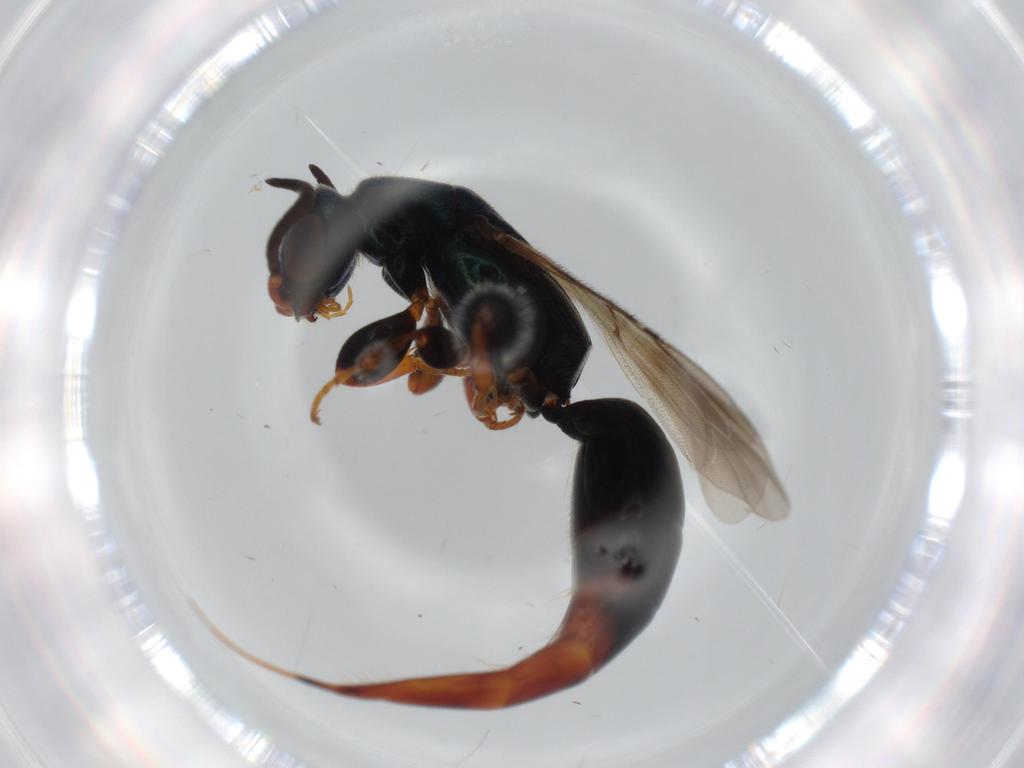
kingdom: Animalia
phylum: Arthropoda
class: Insecta
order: Hymenoptera
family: Bethylidae
